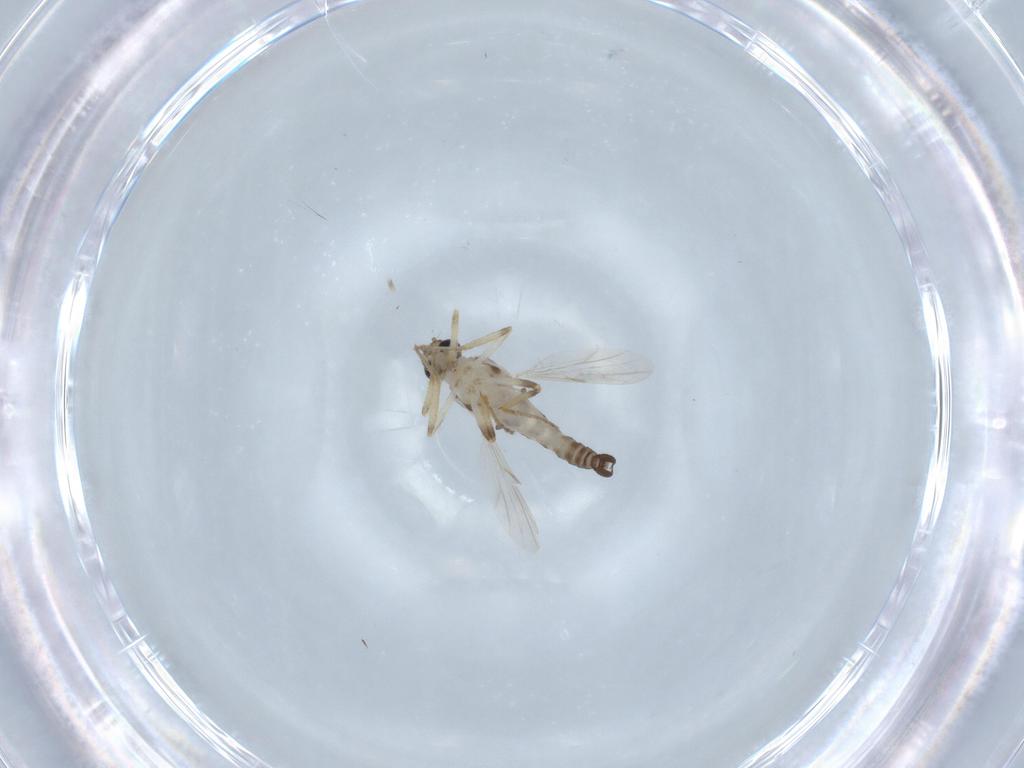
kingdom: Animalia
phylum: Arthropoda
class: Insecta
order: Diptera
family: Ceratopogonidae
